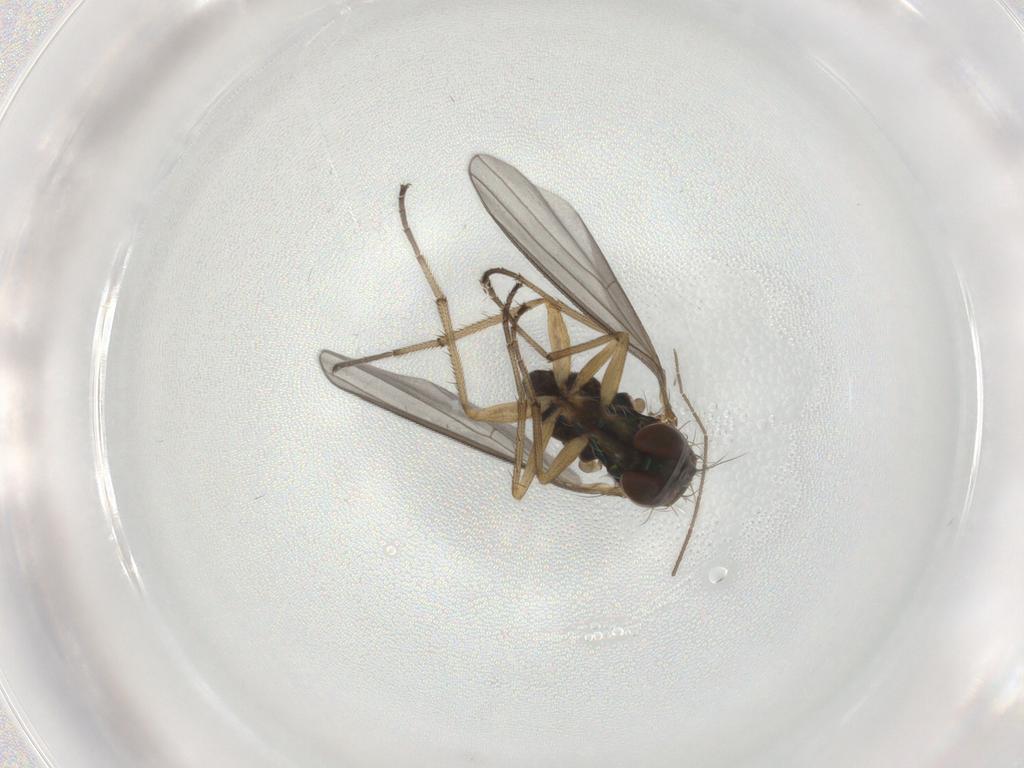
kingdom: Animalia
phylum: Arthropoda
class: Insecta
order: Diptera
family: Dolichopodidae
